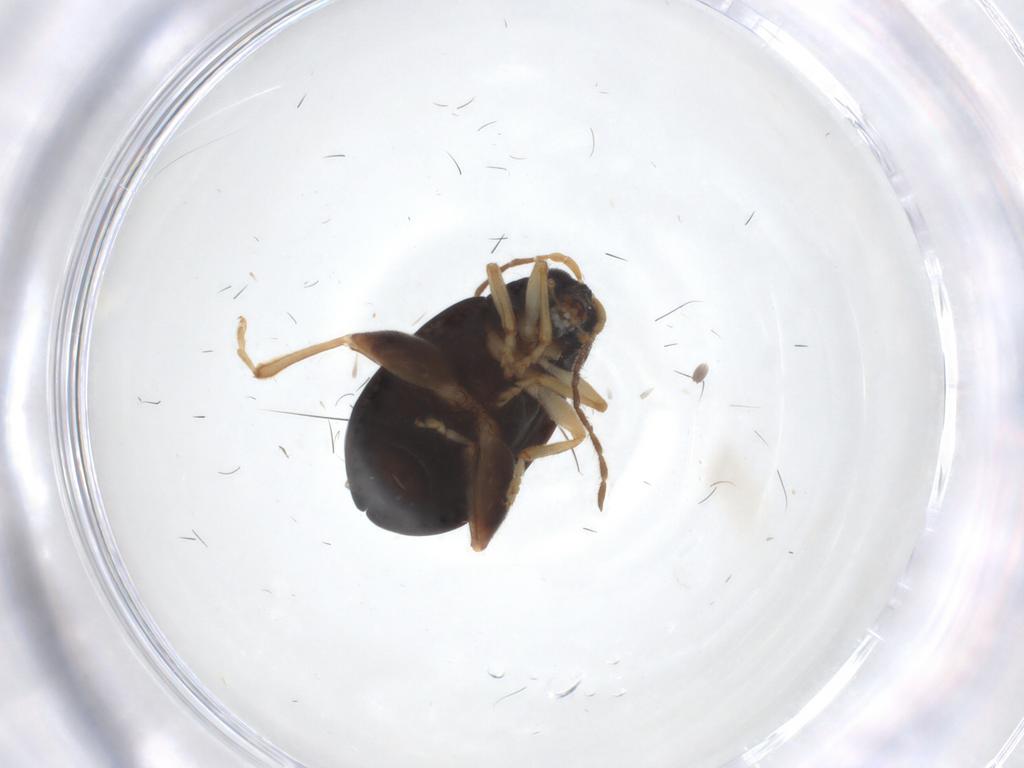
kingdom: Animalia
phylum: Arthropoda
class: Insecta
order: Coleoptera
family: Chrysomelidae
